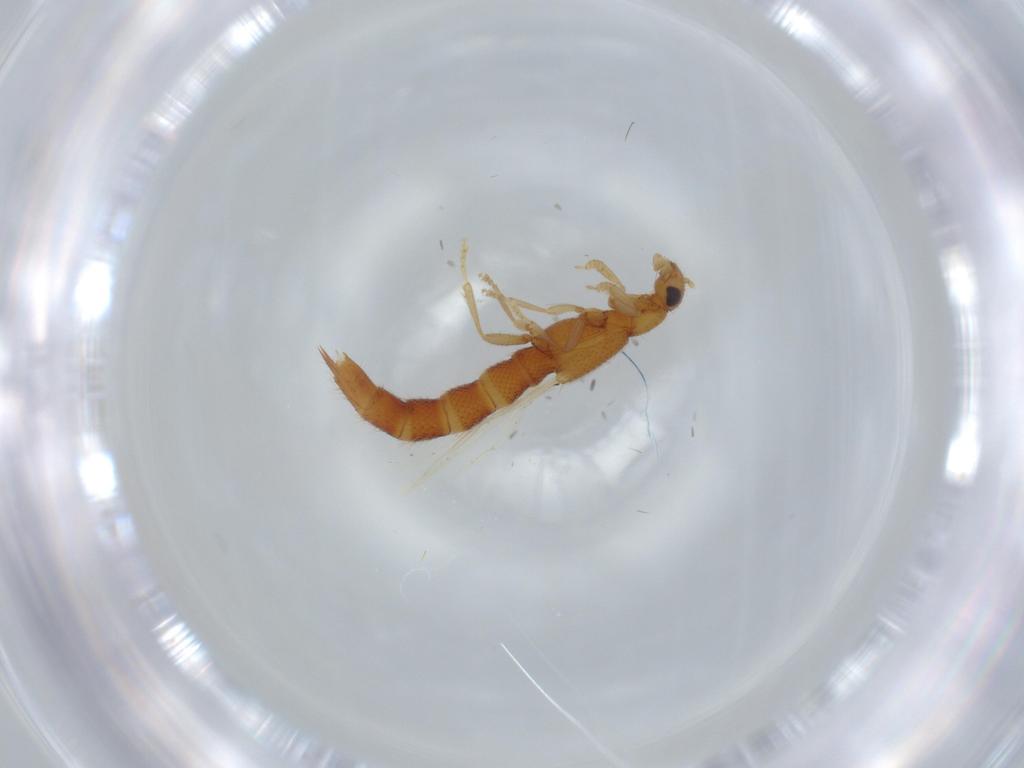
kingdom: Animalia
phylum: Arthropoda
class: Insecta
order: Coleoptera
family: Staphylinidae
